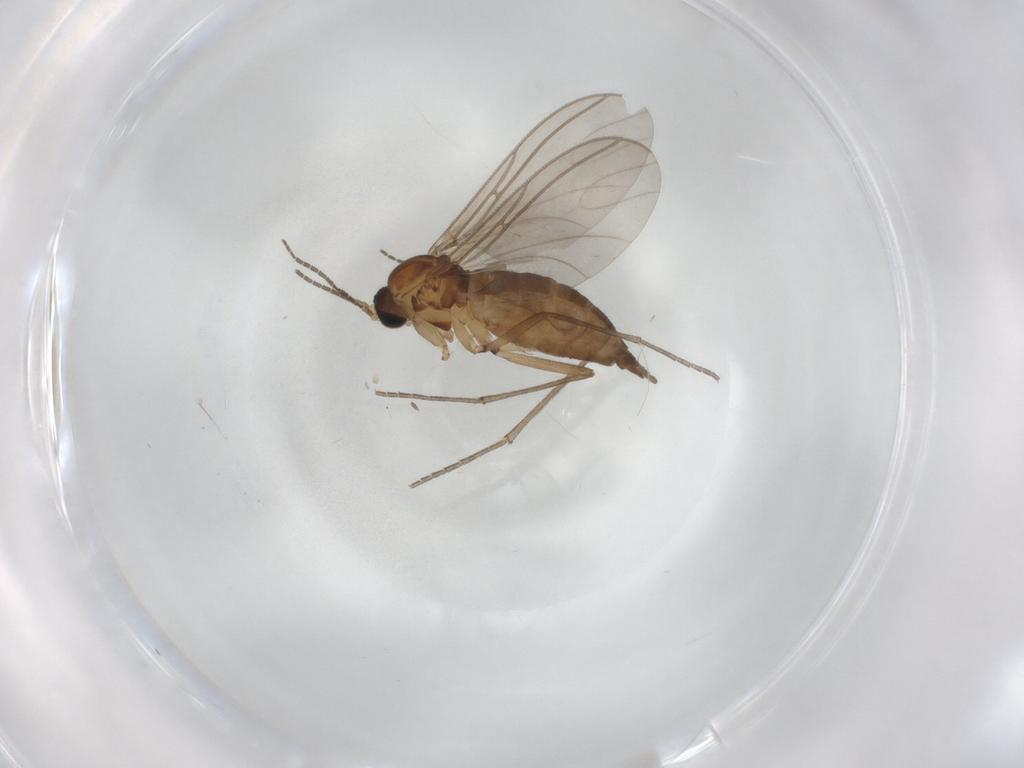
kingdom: Animalia
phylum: Arthropoda
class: Insecta
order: Diptera
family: Sciaridae
